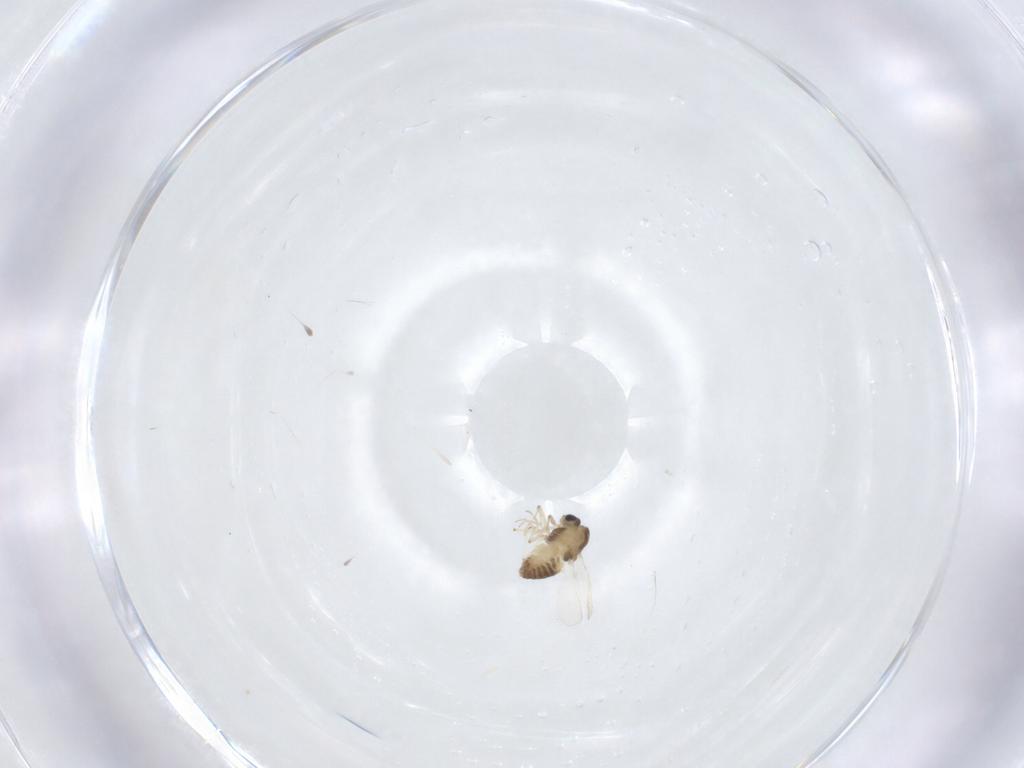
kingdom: Animalia
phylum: Arthropoda
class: Insecta
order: Diptera
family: Chironomidae
